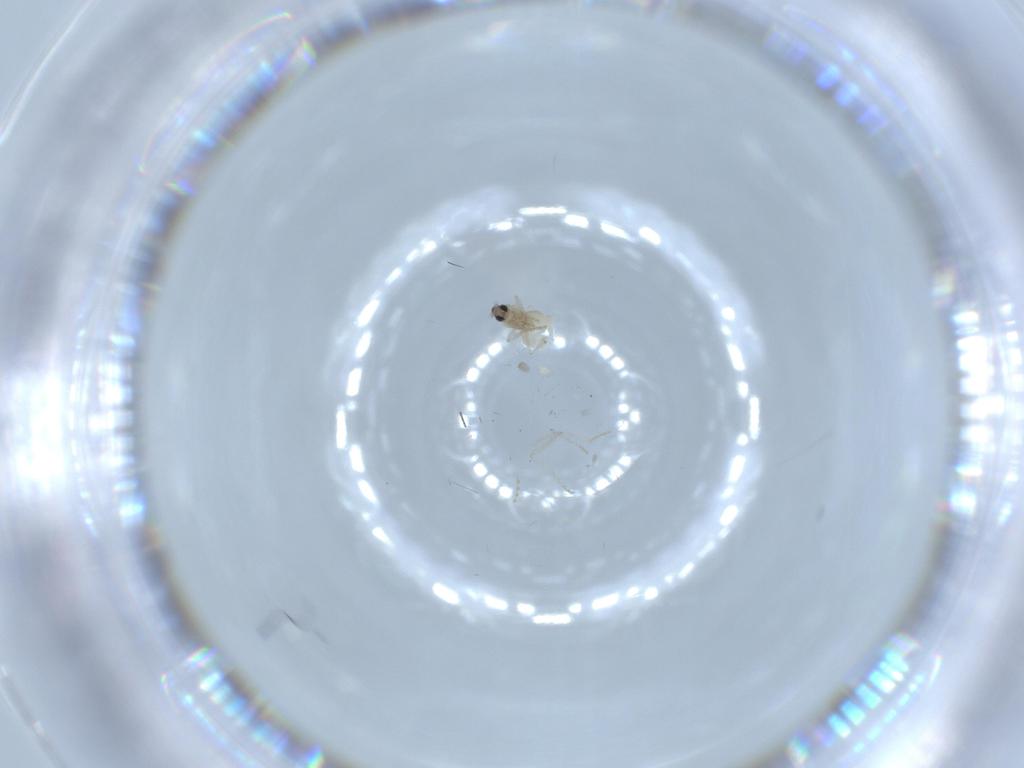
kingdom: Animalia
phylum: Arthropoda
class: Insecta
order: Diptera
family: Cecidomyiidae
